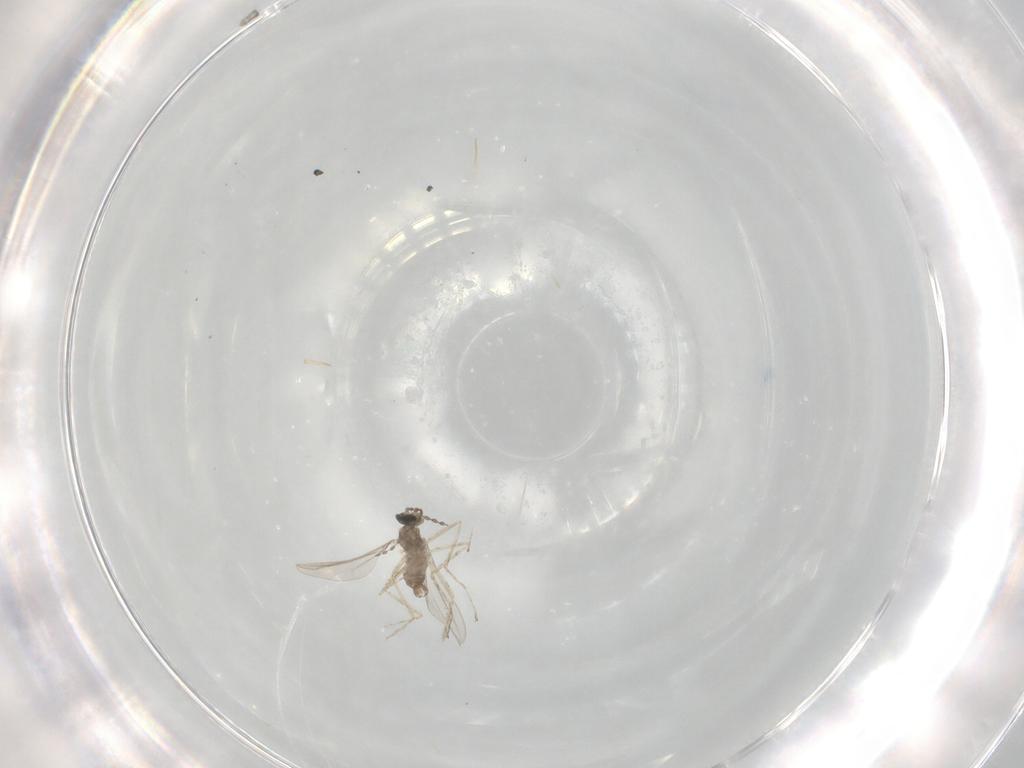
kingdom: Animalia
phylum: Arthropoda
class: Insecta
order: Diptera
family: Cecidomyiidae
